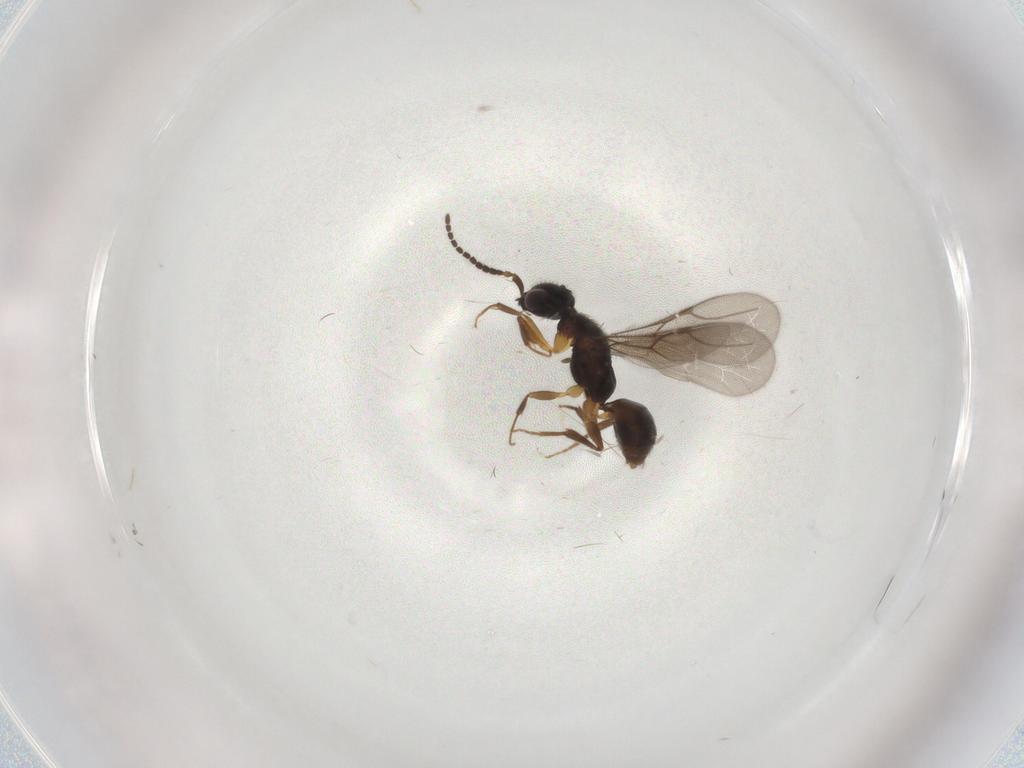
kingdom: Animalia
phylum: Arthropoda
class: Insecta
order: Hymenoptera
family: Bethylidae
